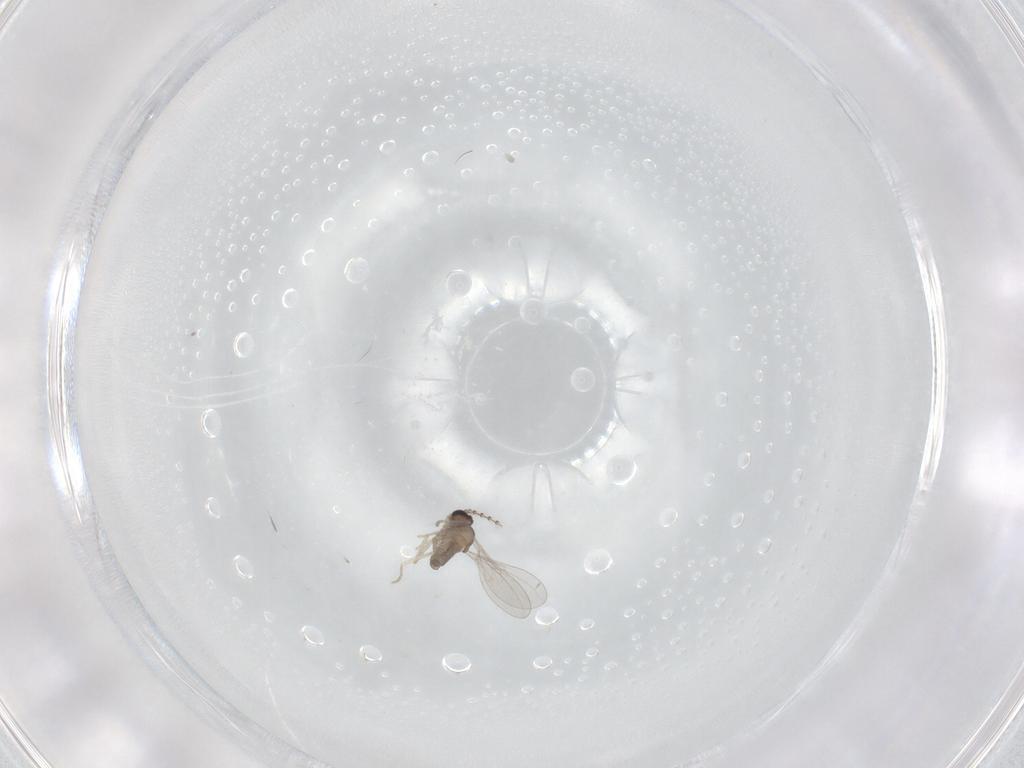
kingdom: Animalia
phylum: Arthropoda
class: Insecta
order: Diptera
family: Cecidomyiidae
